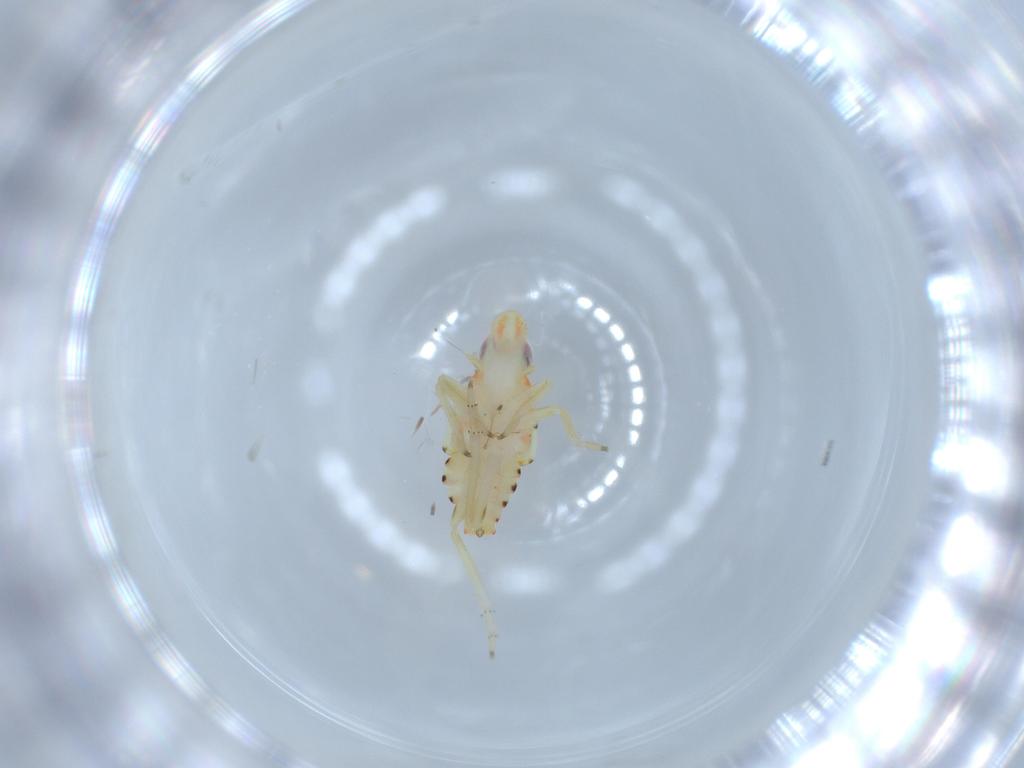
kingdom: Animalia
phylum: Arthropoda
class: Insecta
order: Hemiptera
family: Tropiduchidae
